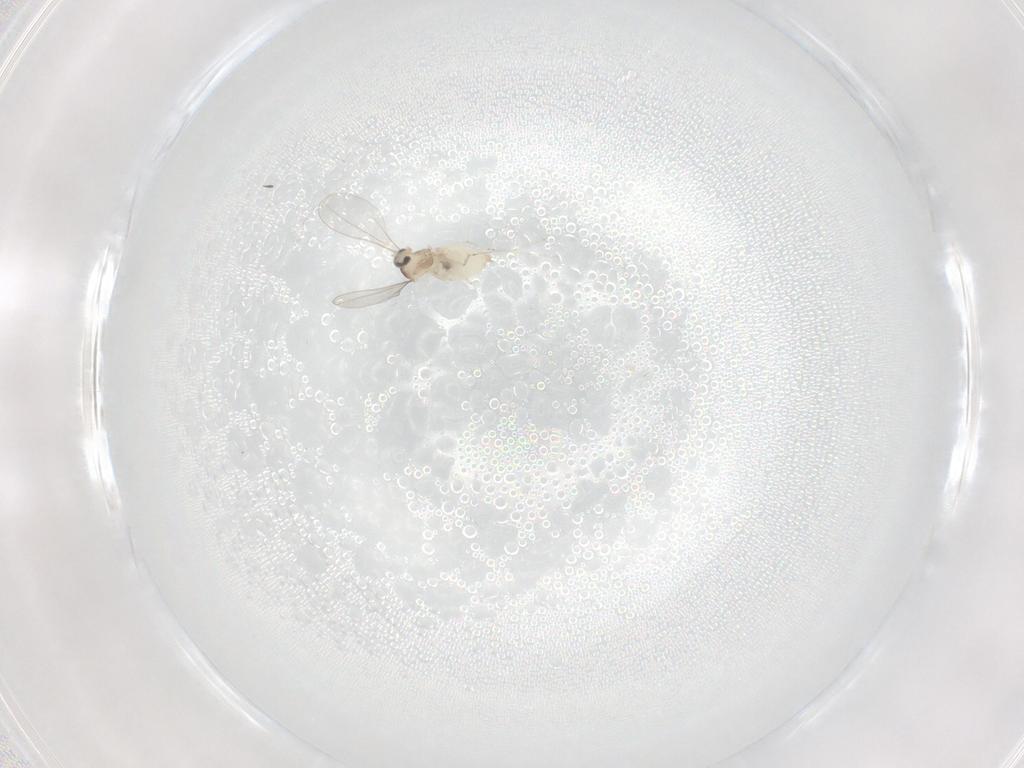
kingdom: Animalia
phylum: Arthropoda
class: Insecta
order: Diptera
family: Cecidomyiidae
